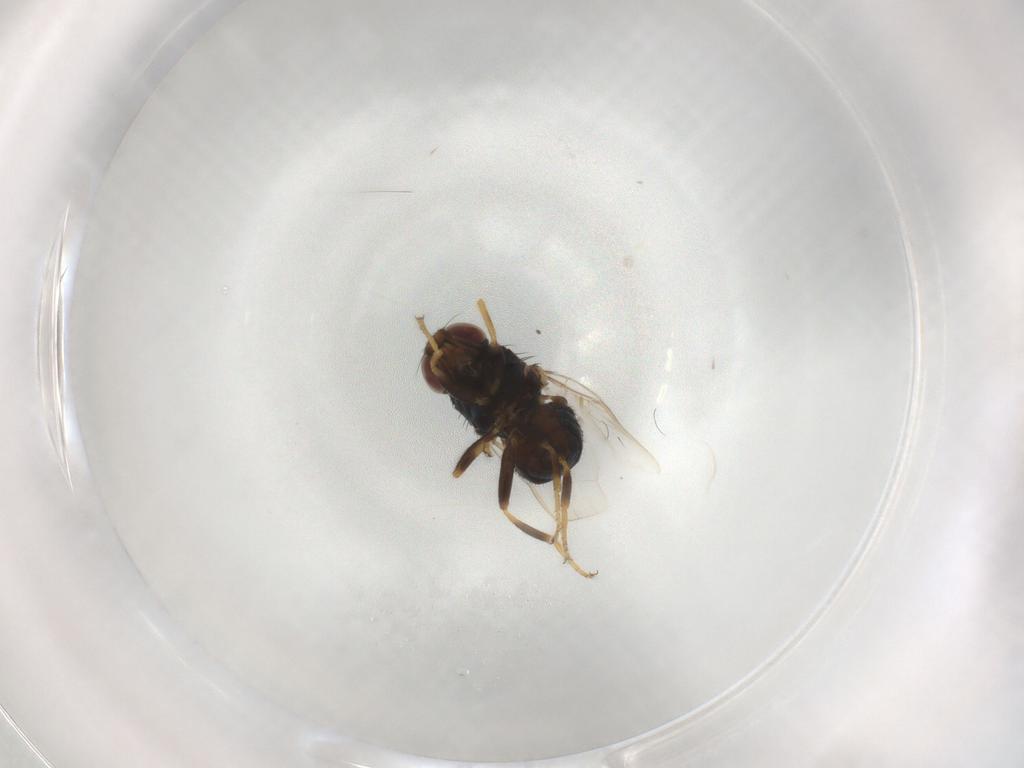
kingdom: Animalia
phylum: Arthropoda
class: Insecta
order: Diptera
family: Chloropidae
